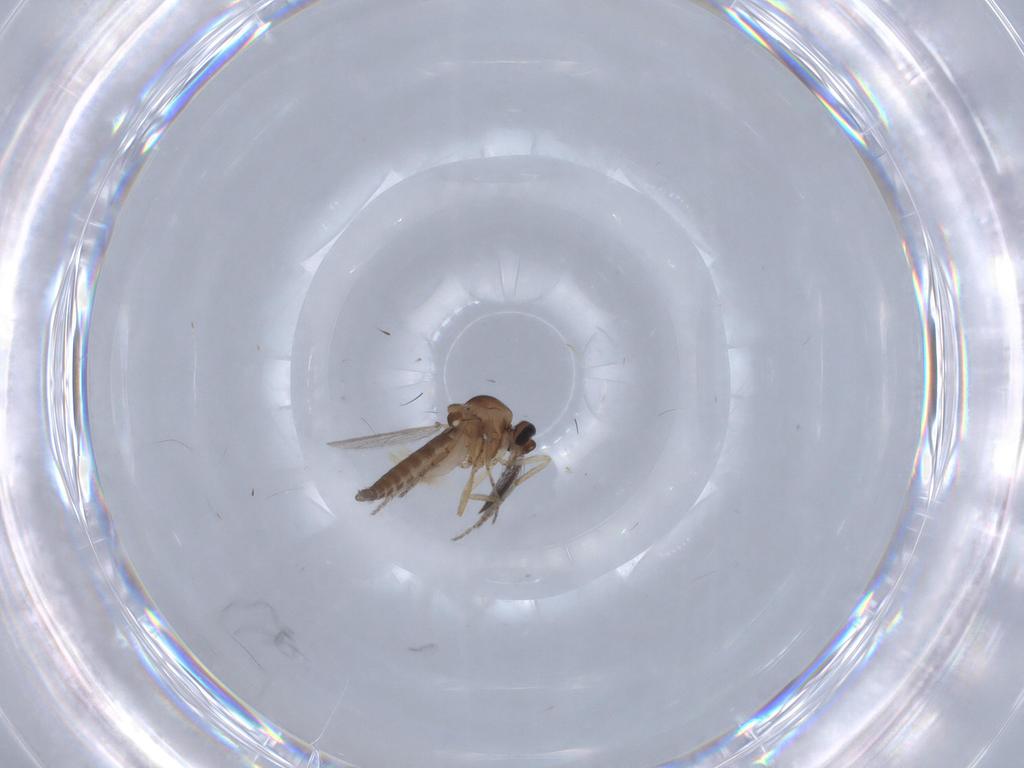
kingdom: Animalia
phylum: Arthropoda
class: Insecta
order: Diptera
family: Ceratopogonidae
